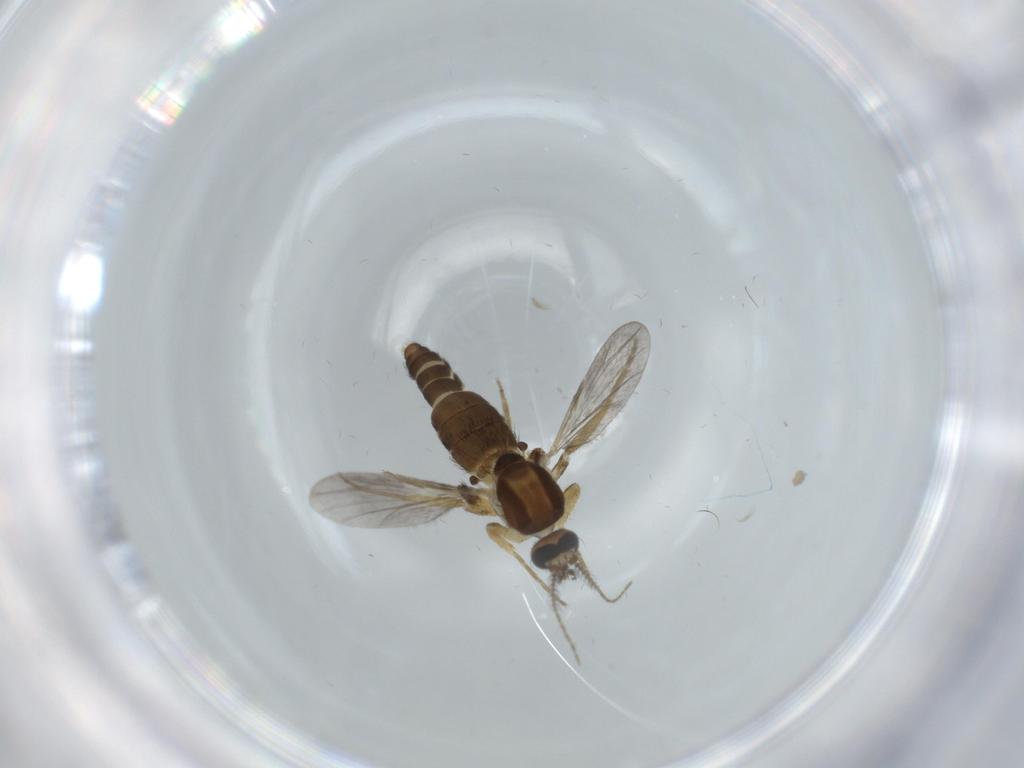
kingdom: Animalia
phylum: Arthropoda
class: Insecta
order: Diptera
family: Ceratopogonidae
